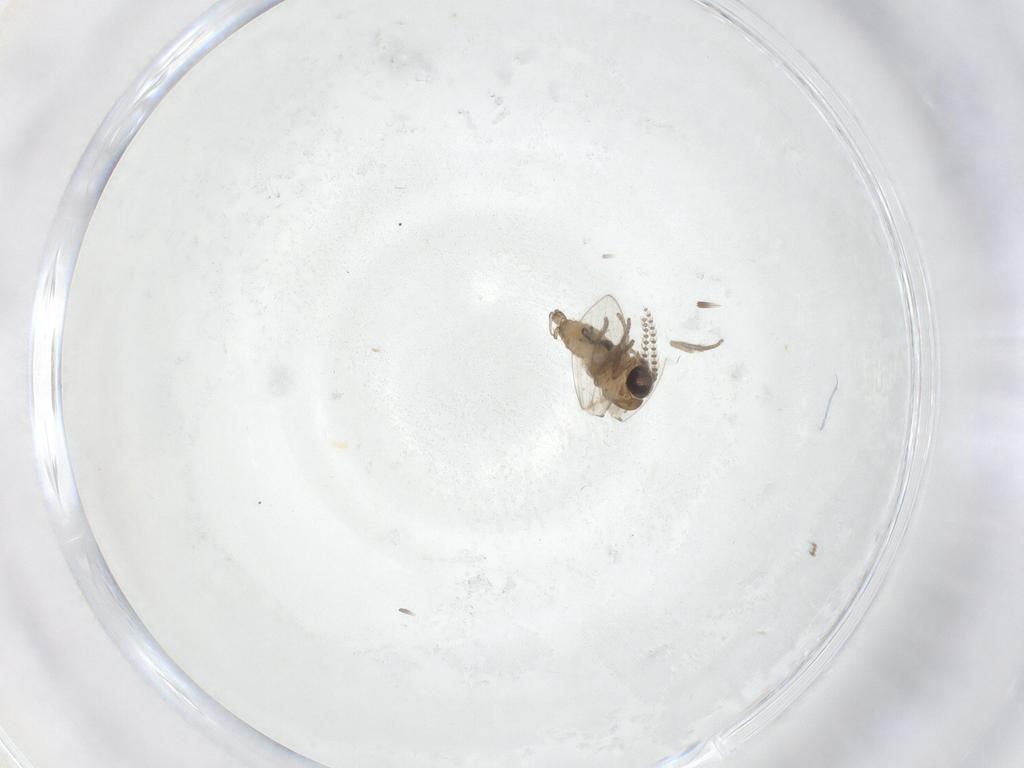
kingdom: Animalia
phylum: Arthropoda
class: Insecta
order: Diptera
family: Psychodidae
